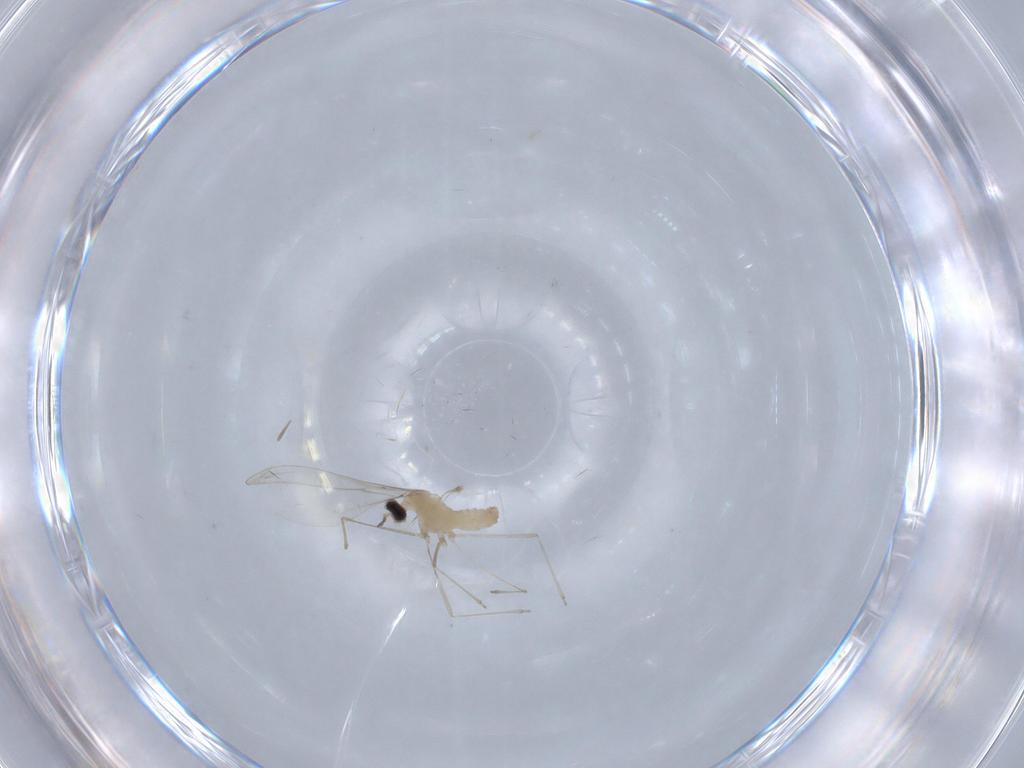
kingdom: Animalia
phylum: Arthropoda
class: Insecta
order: Diptera
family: Cecidomyiidae
